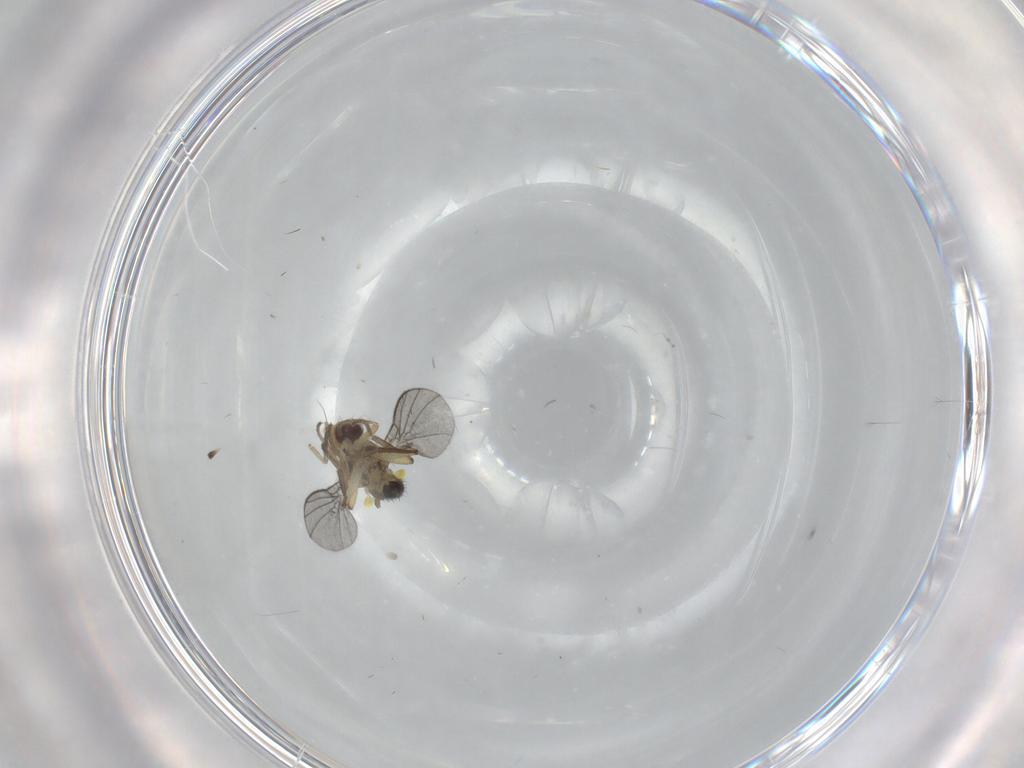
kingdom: Animalia
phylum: Arthropoda
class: Insecta
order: Diptera
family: Agromyzidae
